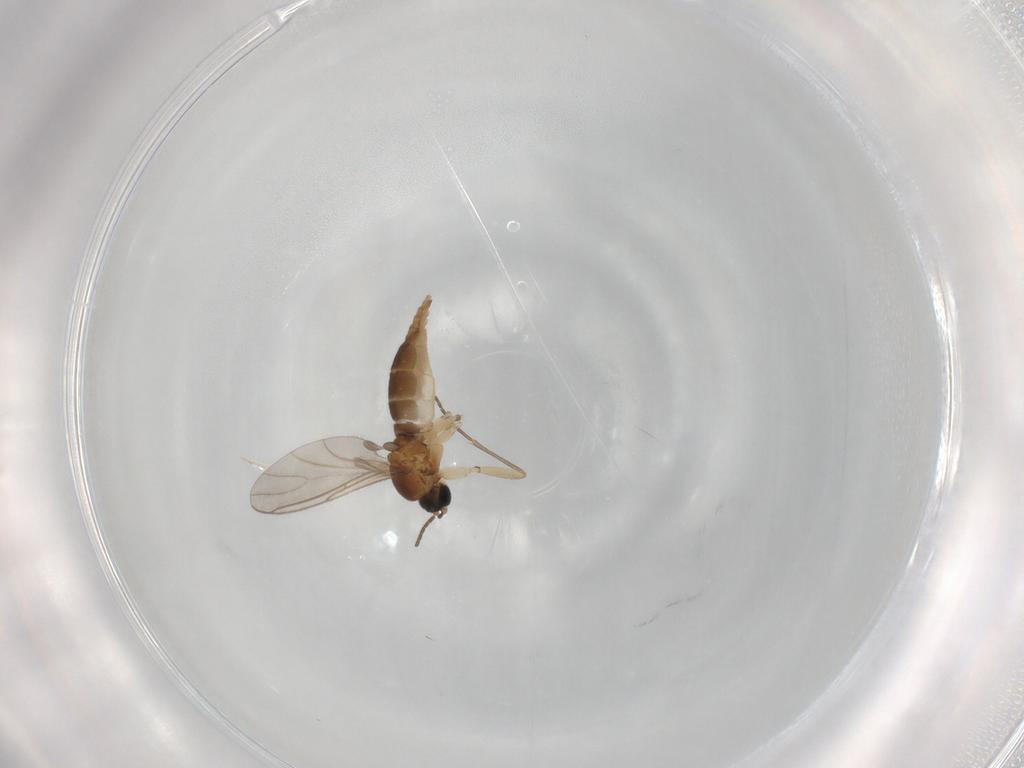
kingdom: Animalia
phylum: Arthropoda
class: Insecta
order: Diptera
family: Sciaridae
